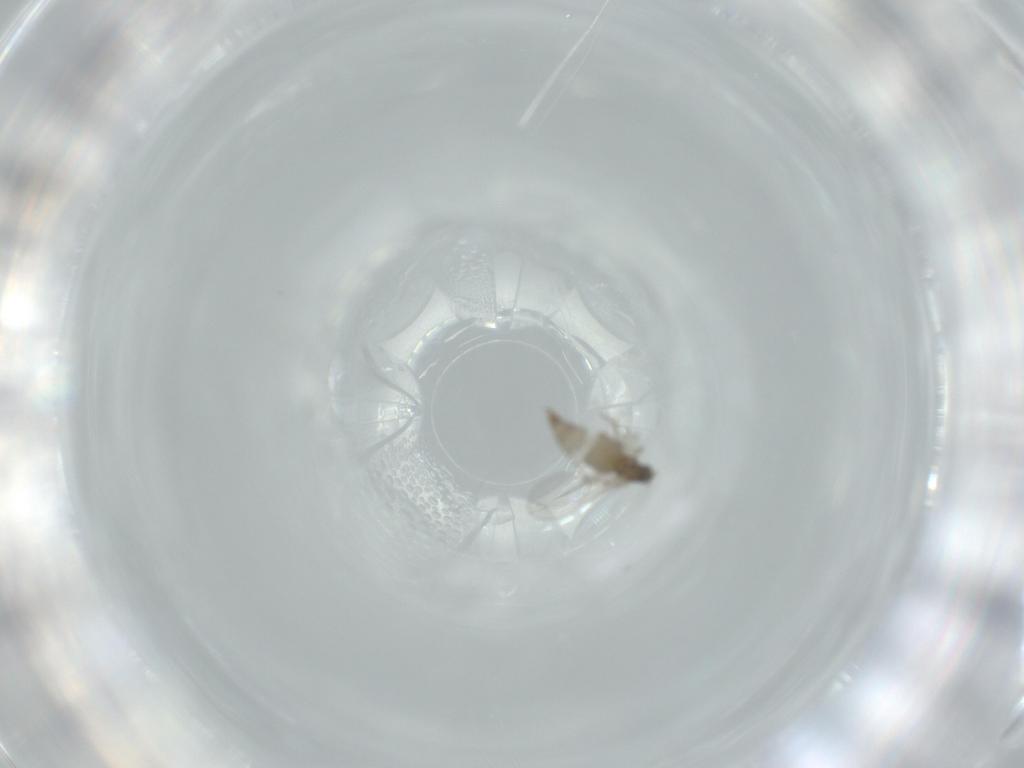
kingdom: Animalia
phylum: Arthropoda
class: Insecta
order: Diptera
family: Cecidomyiidae
